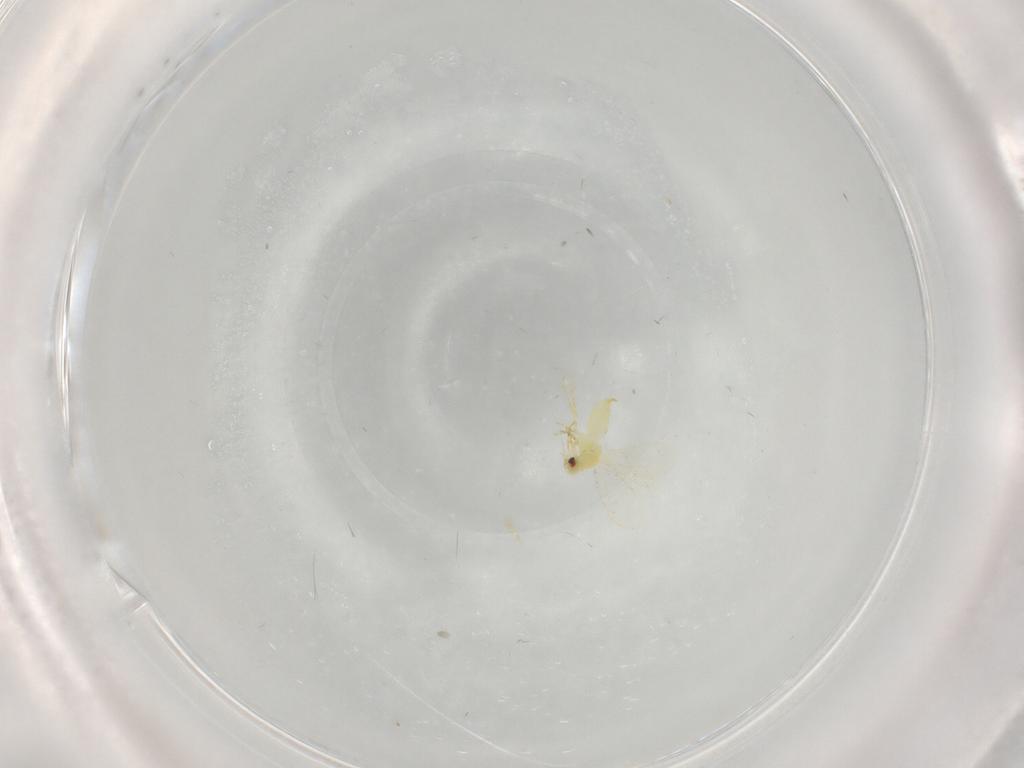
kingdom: Animalia
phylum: Arthropoda
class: Insecta
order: Hemiptera
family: Aleyrodidae
